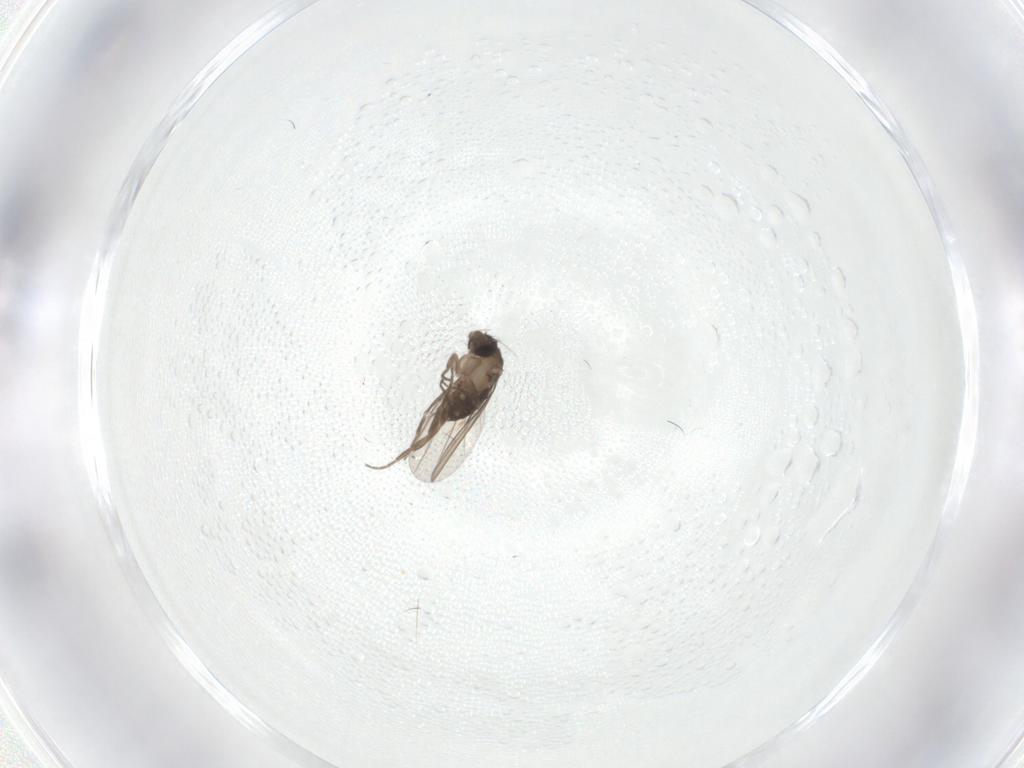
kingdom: Animalia
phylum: Arthropoda
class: Insecta
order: Diptera
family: Phoridae
